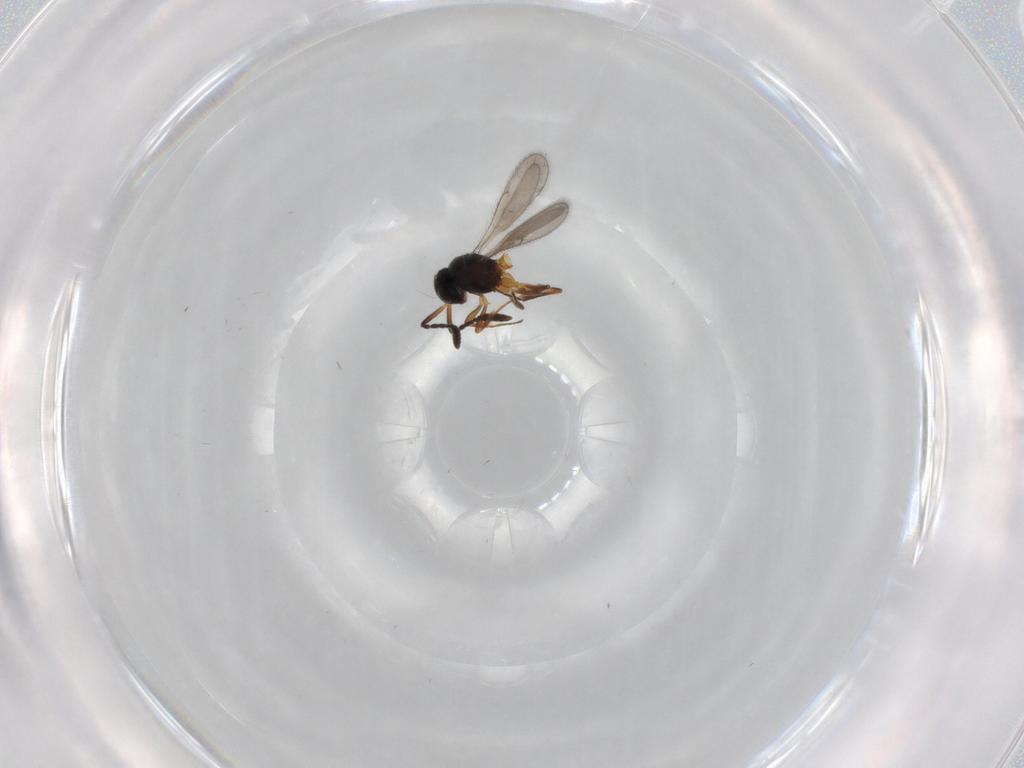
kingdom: Animalia
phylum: Arthropoda
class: Insecta
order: Hymenoptera
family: Scelionidae
